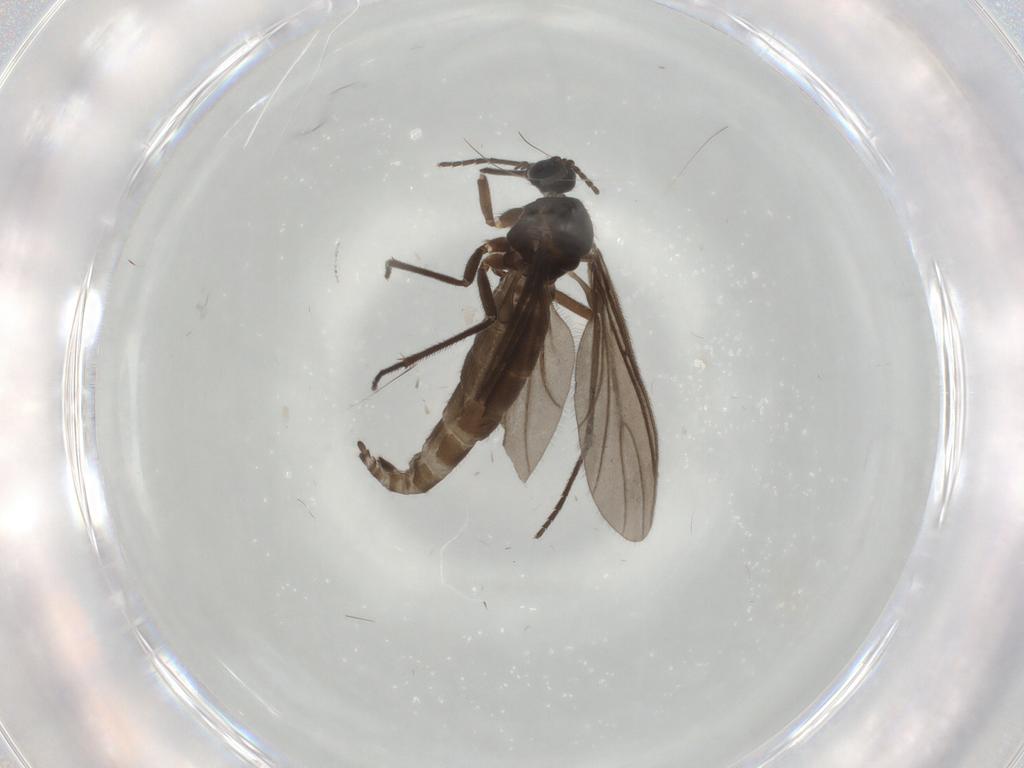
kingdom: Animalia
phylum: Arthropoda
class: Insecta
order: Diptera
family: Sciaridae
